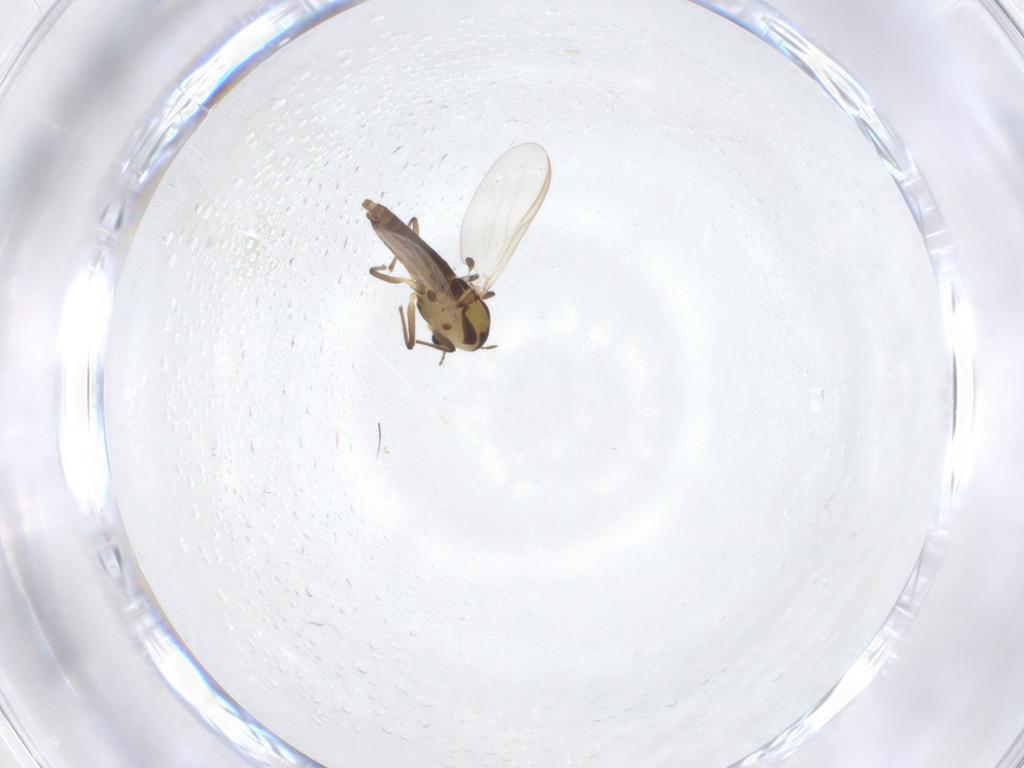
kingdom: Animalia
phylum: Arthropoda
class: Insecta
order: Diptera
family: Chironomidae
